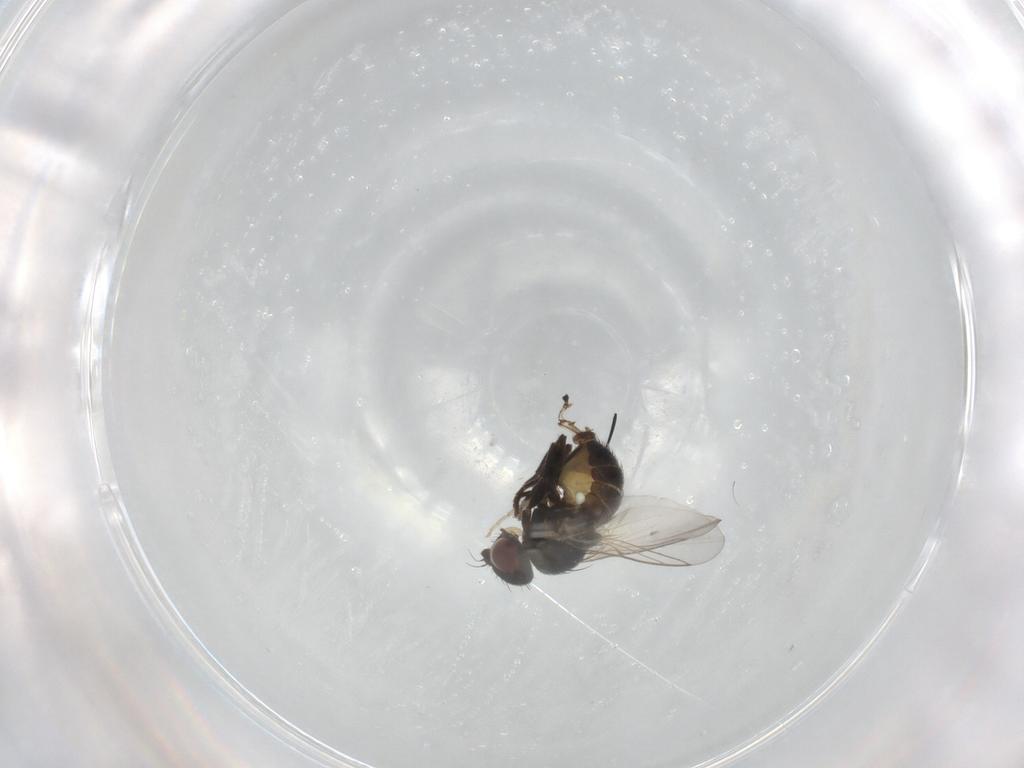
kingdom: Animalia
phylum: Arthropoda
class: Insecta
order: Diptera
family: Agromyzidae
